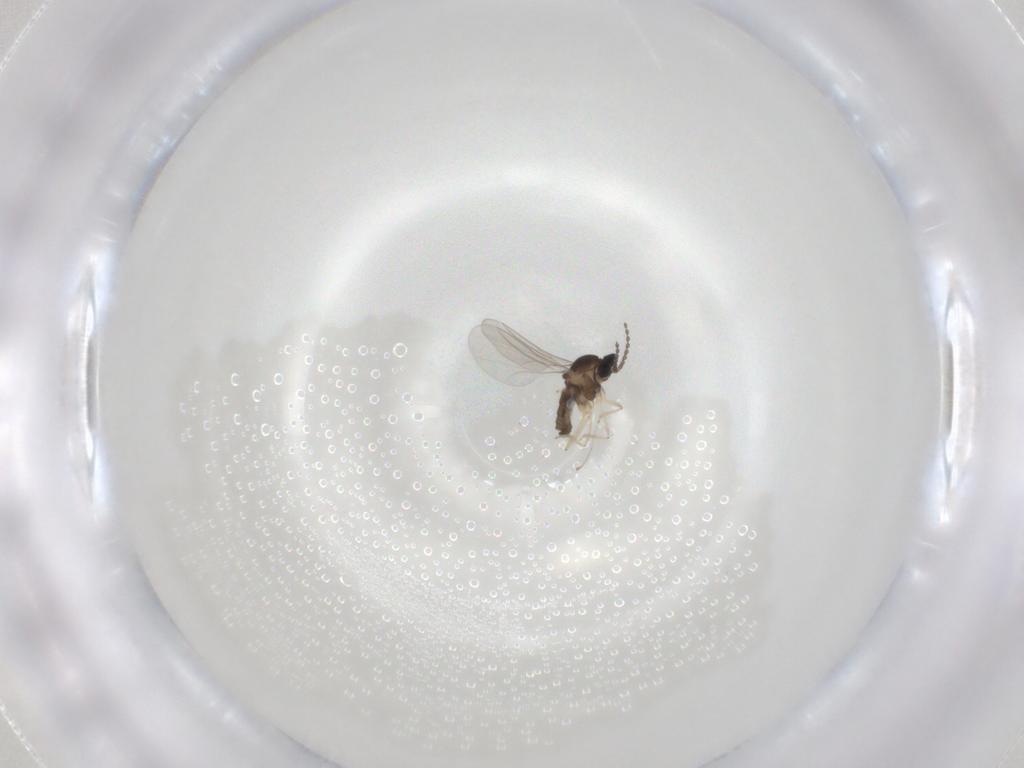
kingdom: Animalia
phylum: Arthropoda
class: Insecta
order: Diptera
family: Cecidomyiidae
